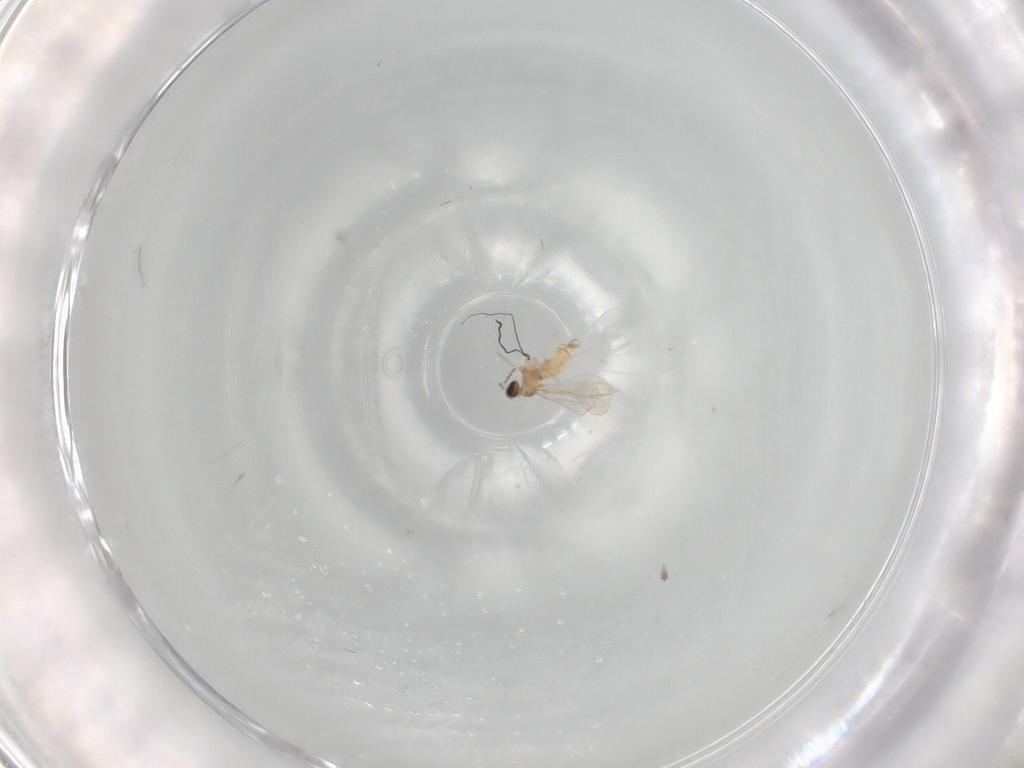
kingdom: Animalia
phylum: Arthropoda
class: Insecta
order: Diptera
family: Cecidomyiidae
